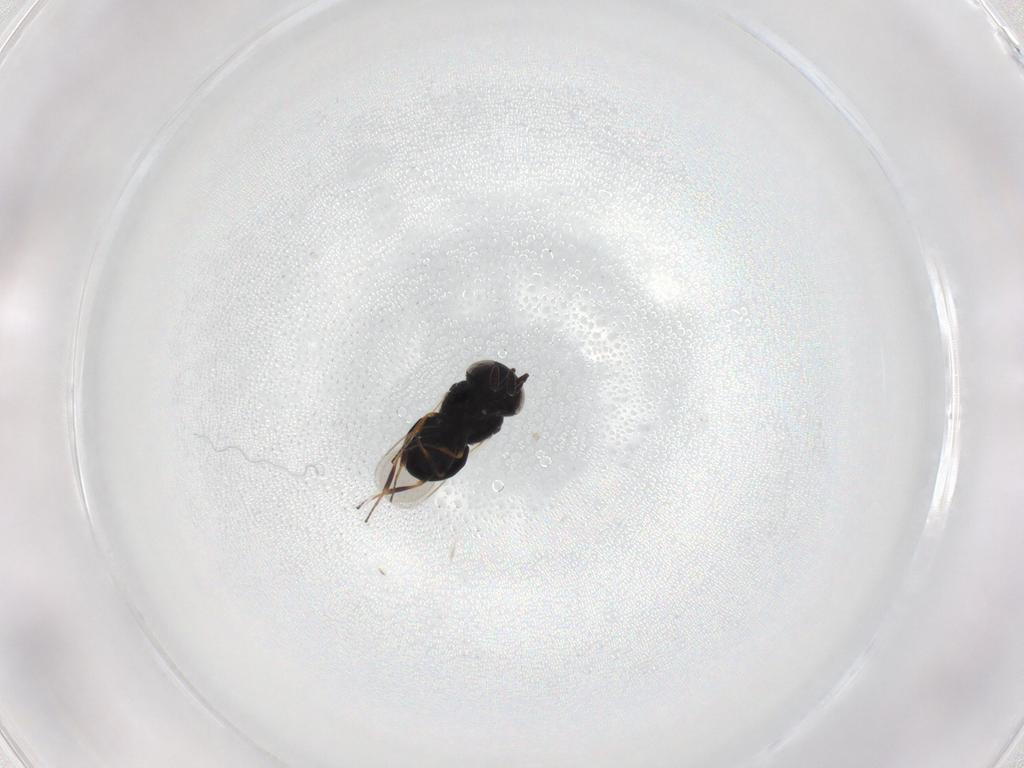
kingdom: Animalia
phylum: Arthropoda
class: Insecta
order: Hymenoptera
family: Scelionidae
